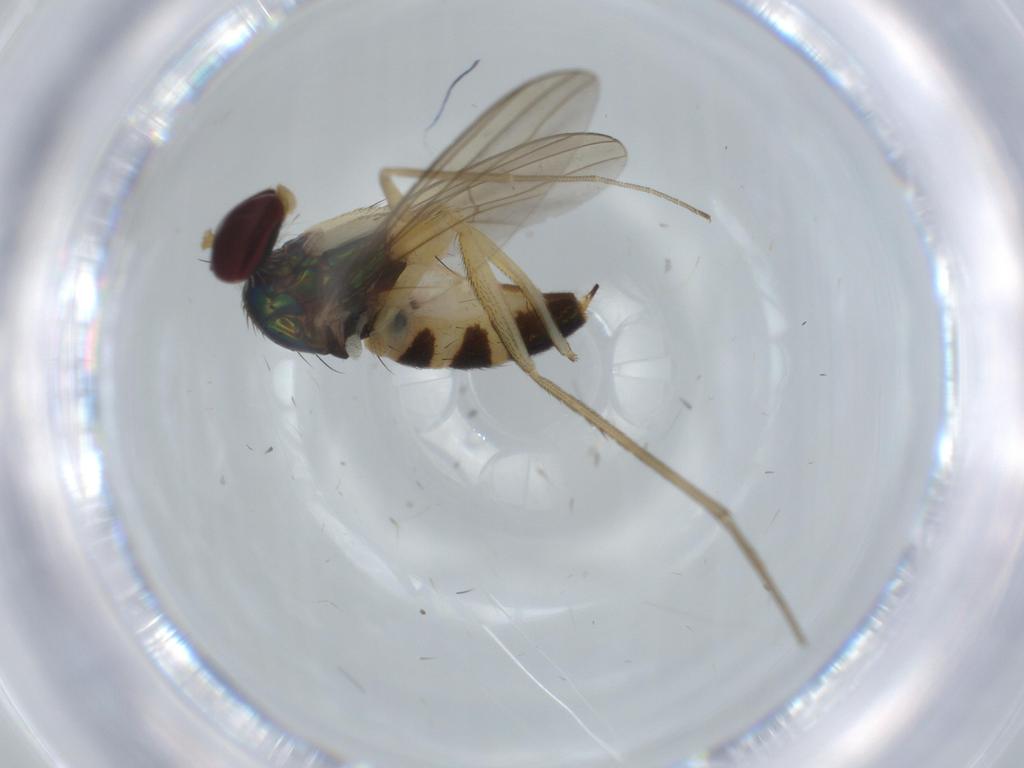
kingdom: Animalia
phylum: Arthropoda
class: Insecta
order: Diptera
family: Dolichopodidae
